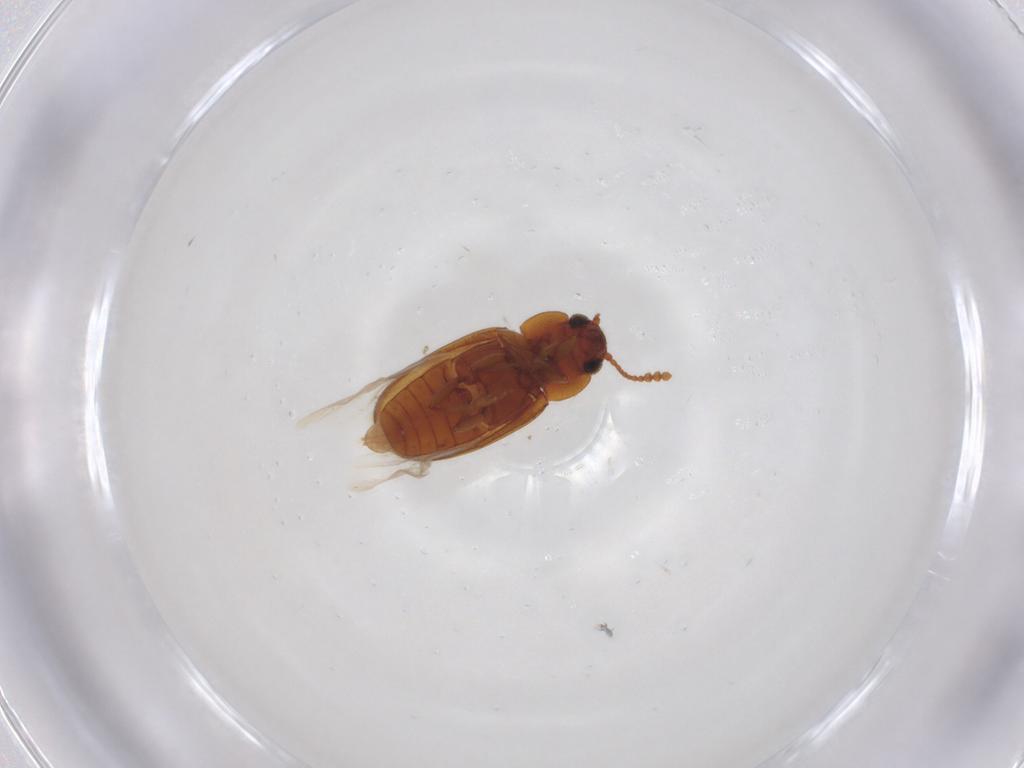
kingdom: Animalia
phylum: Arthropoda
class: Insecta
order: Coleoptera
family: Erotylidae
